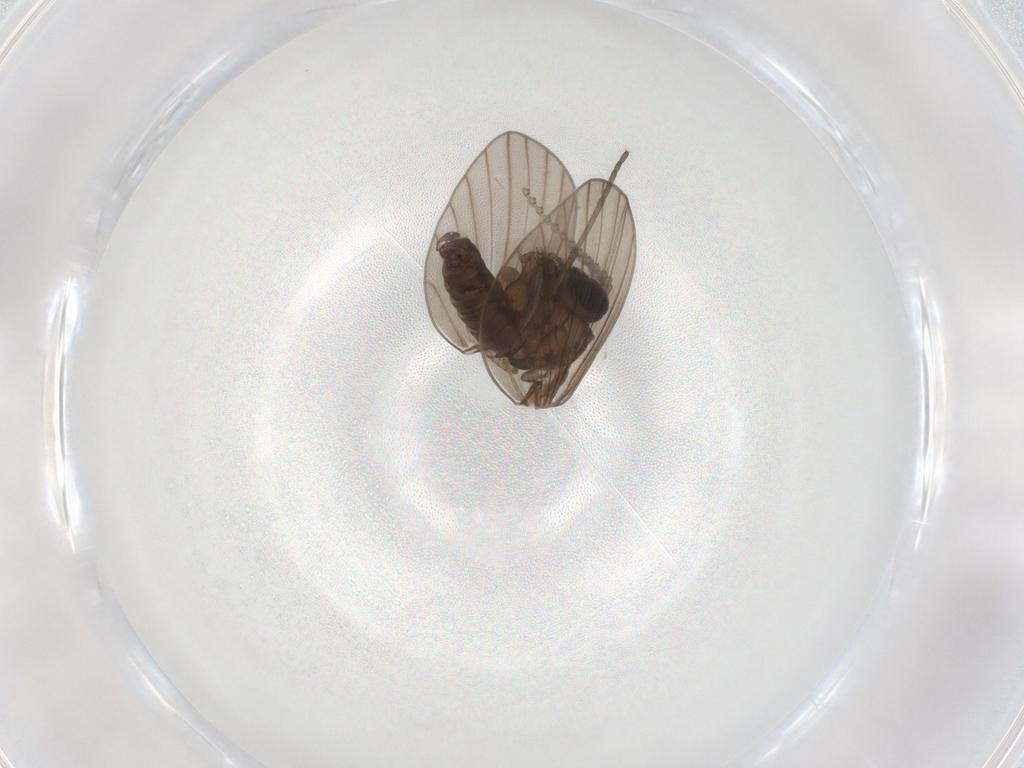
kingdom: Animalia
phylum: Arthropoda
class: Insecta
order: Diptera
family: Psychodidae
